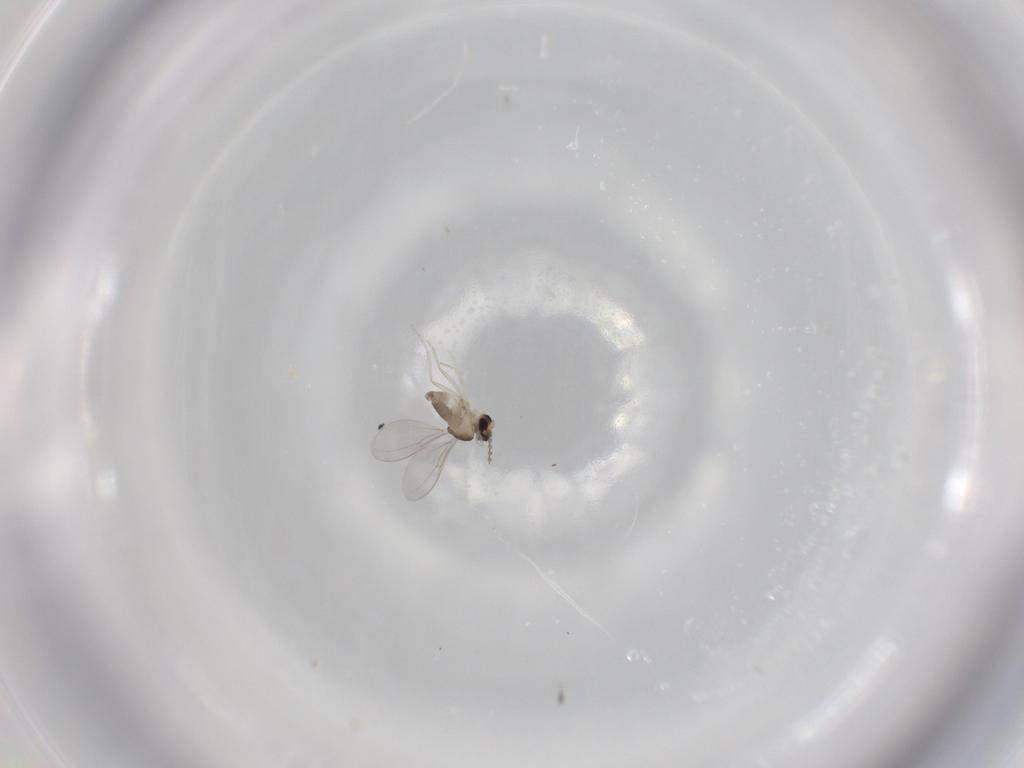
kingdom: Animalia
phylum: Arthropoda
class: Insecta
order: Diptera
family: Cecidomyiidae
